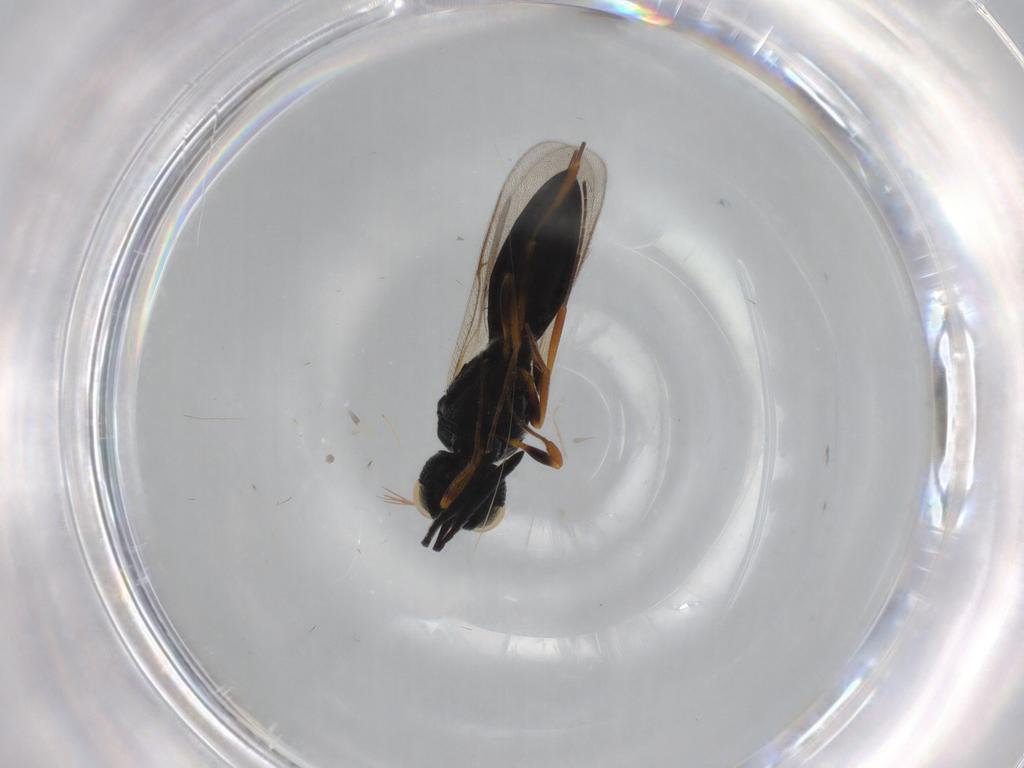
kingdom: Animalia
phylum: Arthropoda
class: Insecta
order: Hymenoptera
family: Scelionidae
